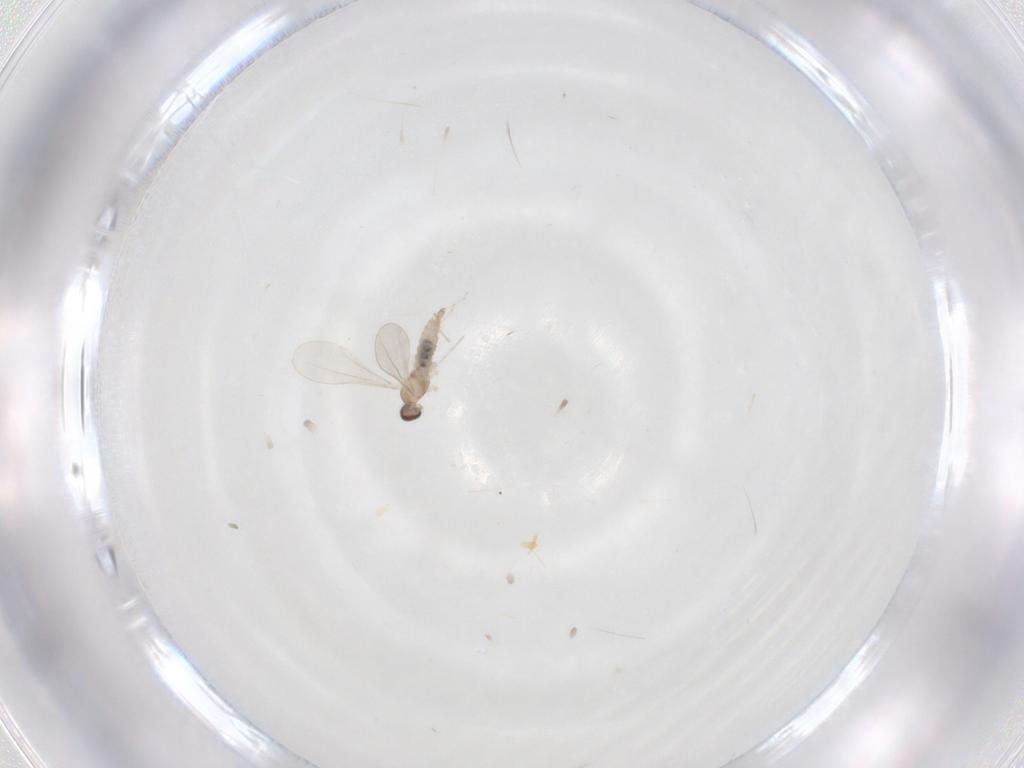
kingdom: Animalia
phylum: Arthropoda
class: Insecta
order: Diptera
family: Cecidomyiidae
